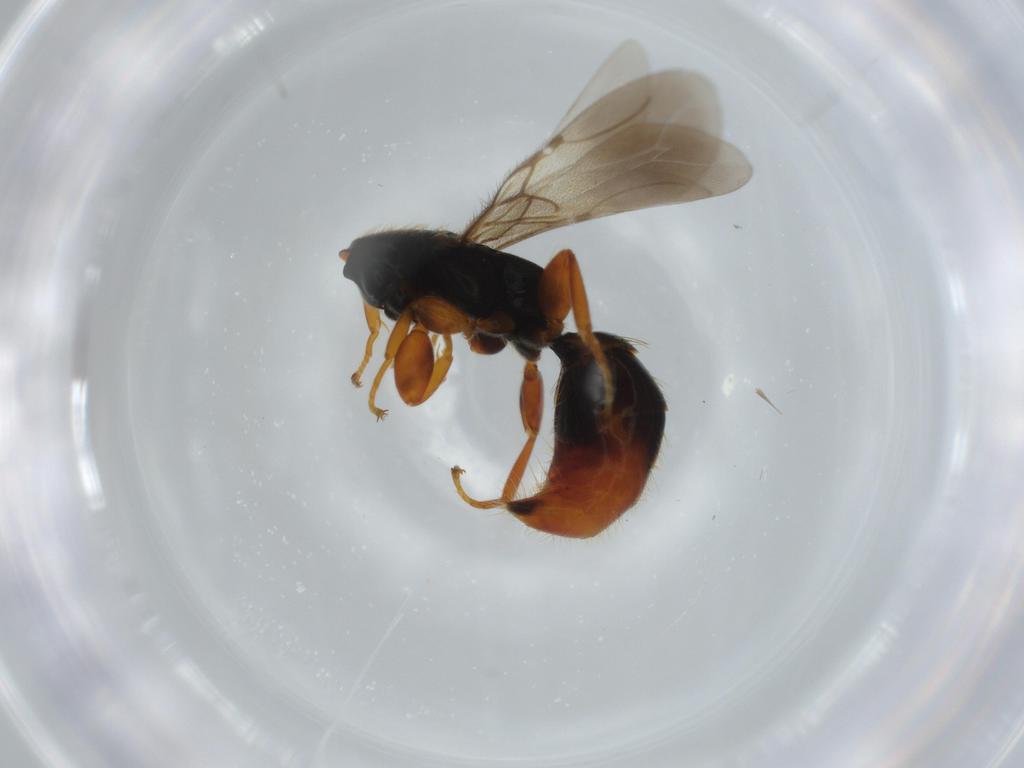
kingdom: Animalia
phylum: Arthropoda
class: Insecta
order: Hymenoptera
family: Bethylidae
